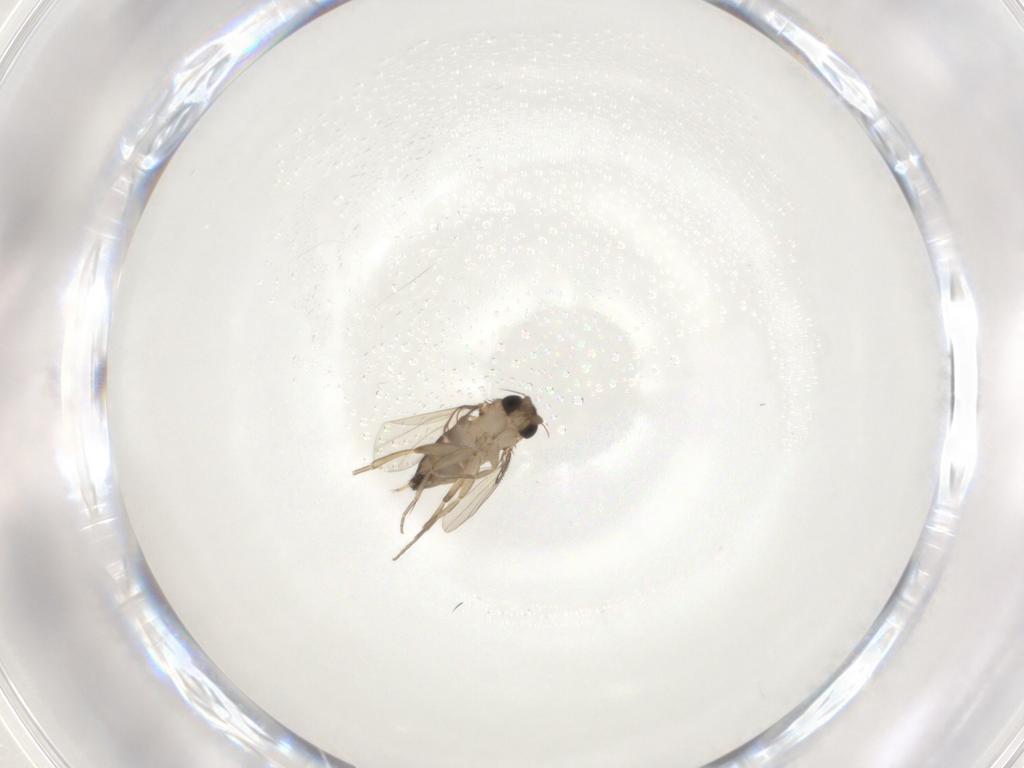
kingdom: Animalia
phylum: Arthropoda
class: Insecta
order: Diptera
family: Phoridae
